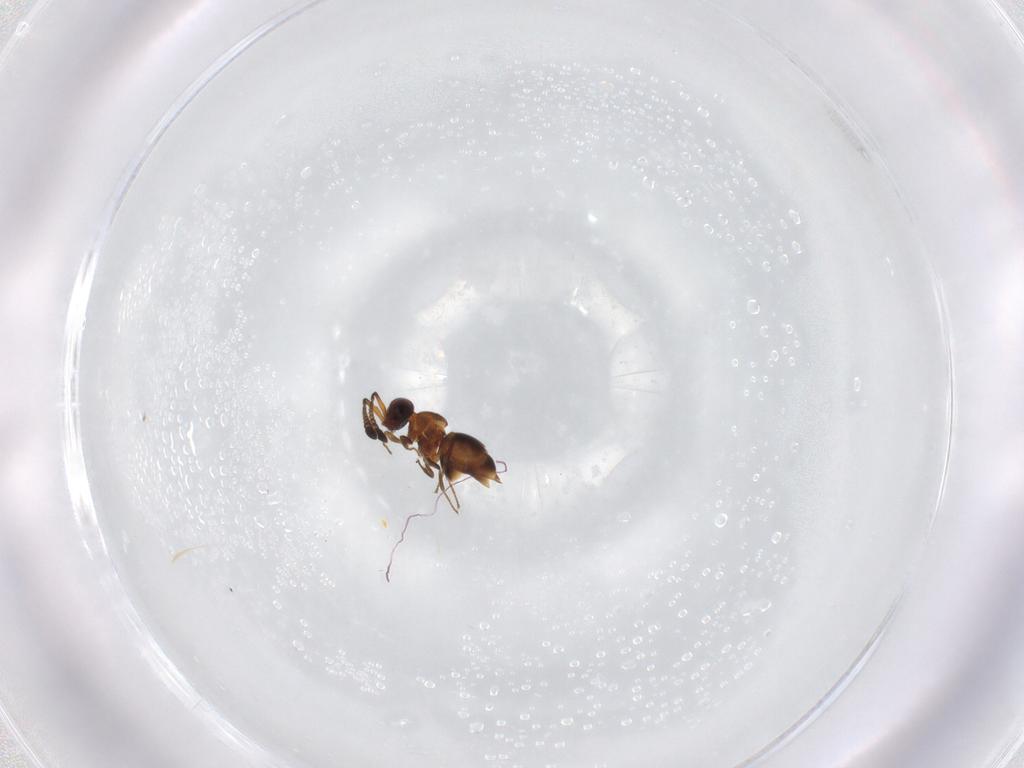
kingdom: Animalia
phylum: Arthropoda
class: Insecta
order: Hymenoptera
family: Ceraphronidae
